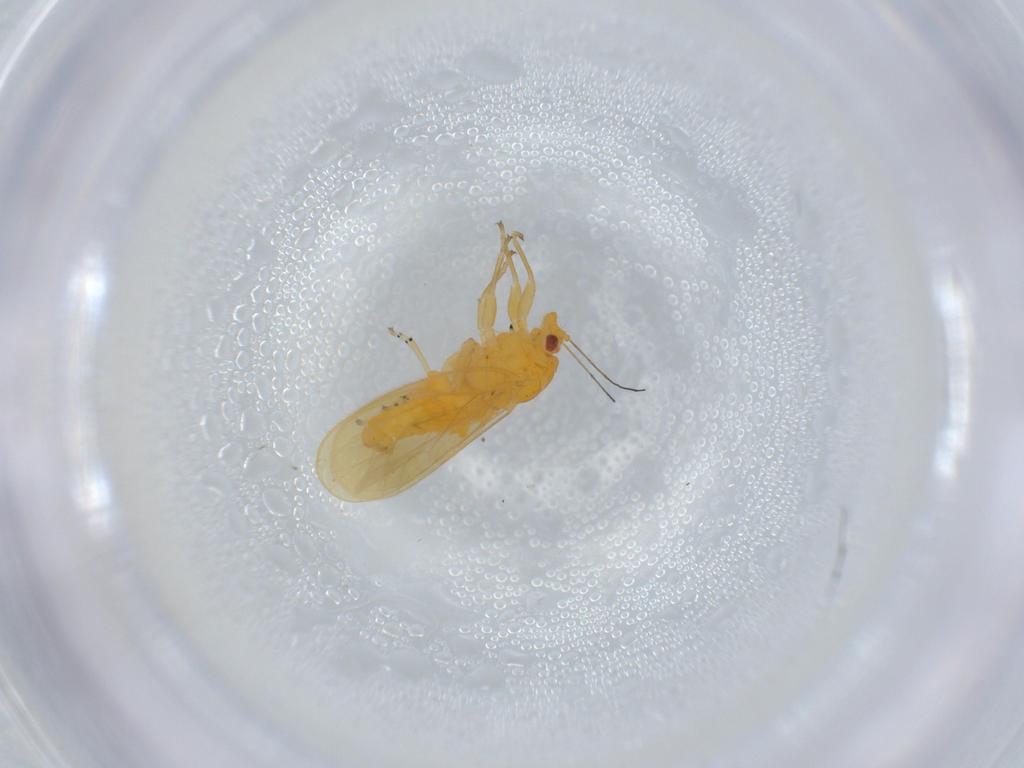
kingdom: Animalia
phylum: Arthropoda
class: Insecta
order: Hemiptera
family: Psyllidae
